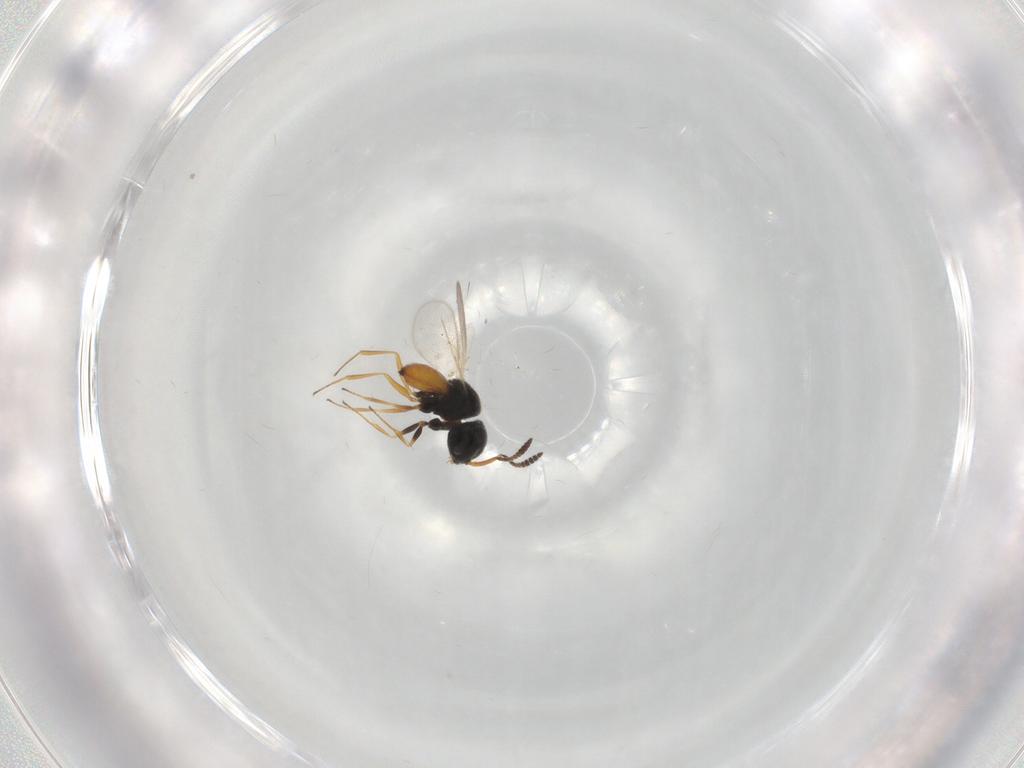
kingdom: Animalia
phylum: Arthropoda
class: Insecta
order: Hymenoptera
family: Scelionidae
